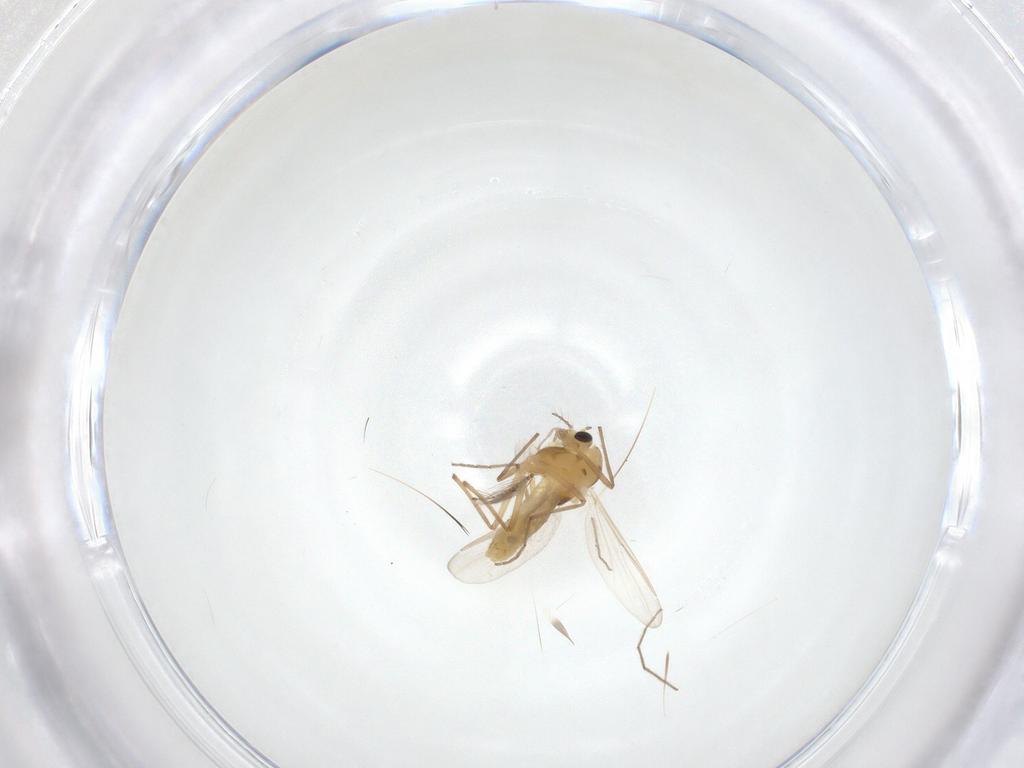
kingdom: Animalia
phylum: Arthropoda
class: Insecta
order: Diptera
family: Chironomidae
